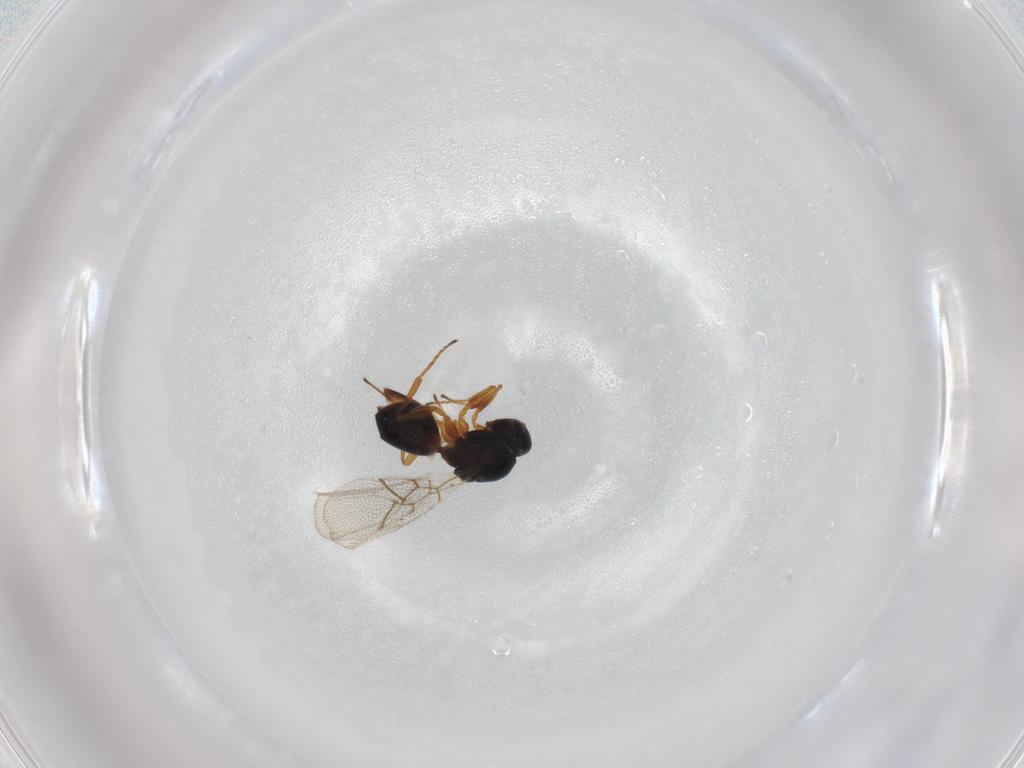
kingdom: Animalia
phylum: Arthropoda
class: Insecta
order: Hymenoptera
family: Figitidae
